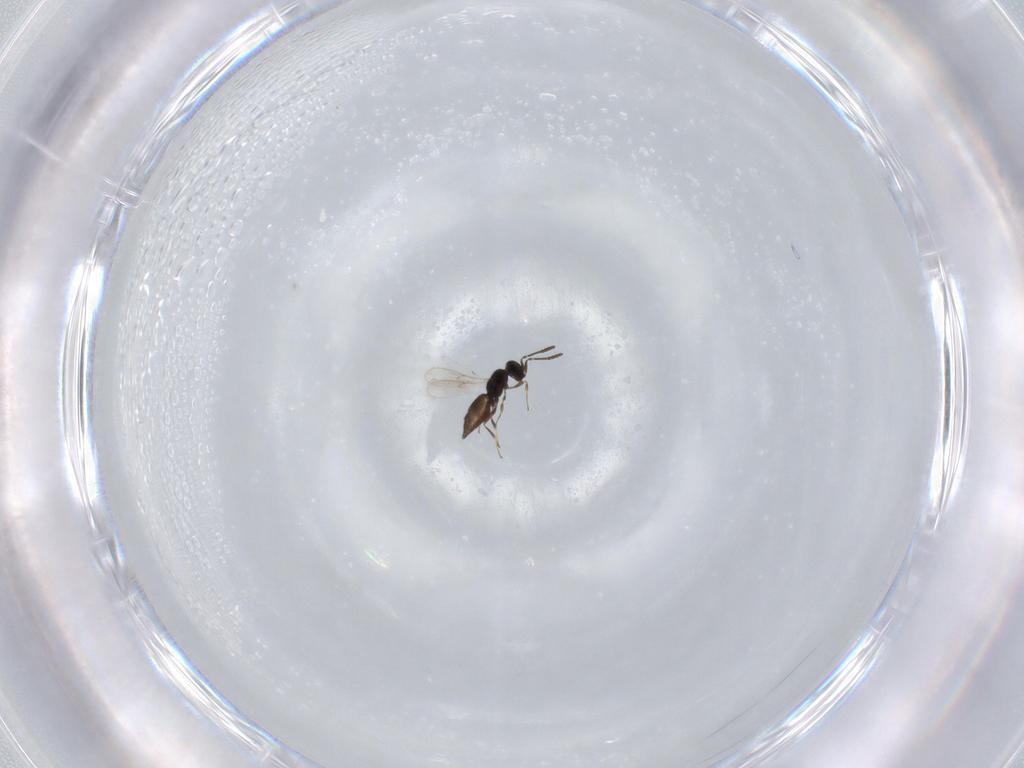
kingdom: Animalia
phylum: Arthropoda
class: Insecta
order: Hymenoptera
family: Scelionidae
